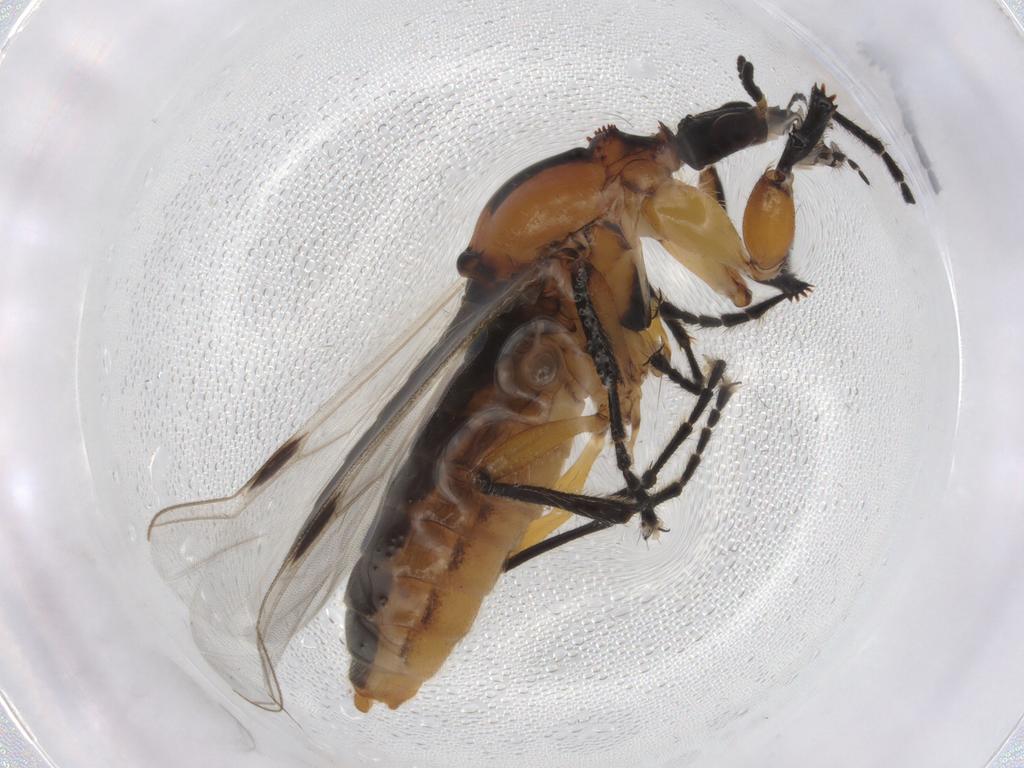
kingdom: Animalia
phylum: Arthropoda
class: Insecta
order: Diptera
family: Bibionidae
